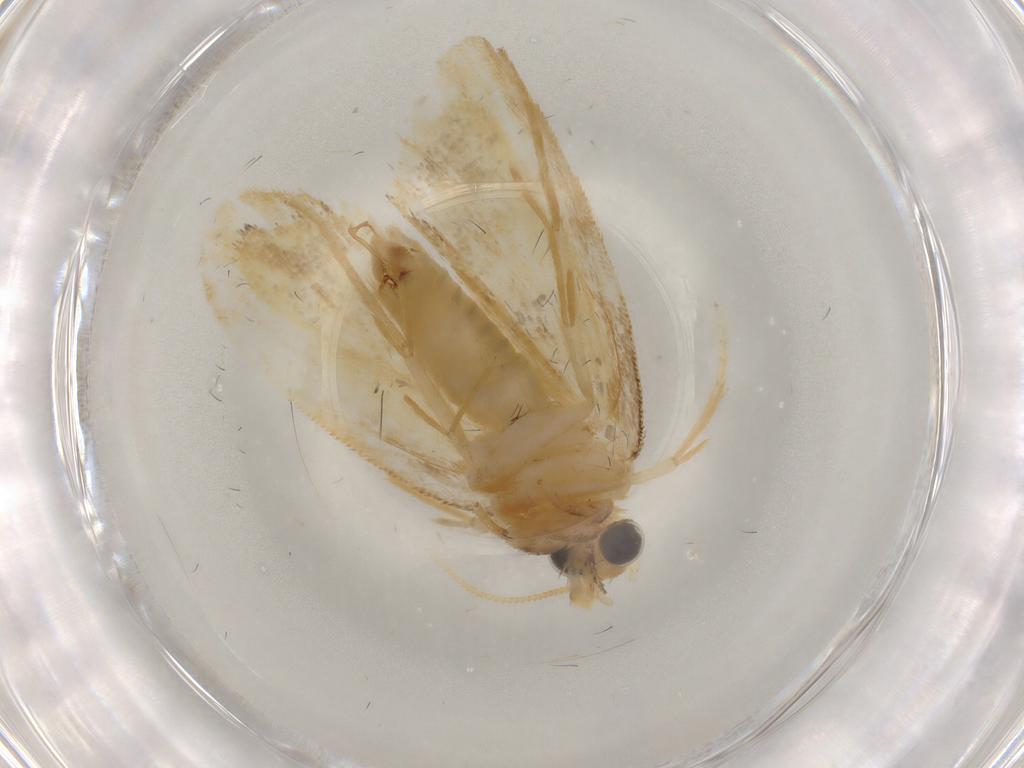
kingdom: Animalia
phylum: Arthropoda
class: Insecta
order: Lepidoptera
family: Psychidae
